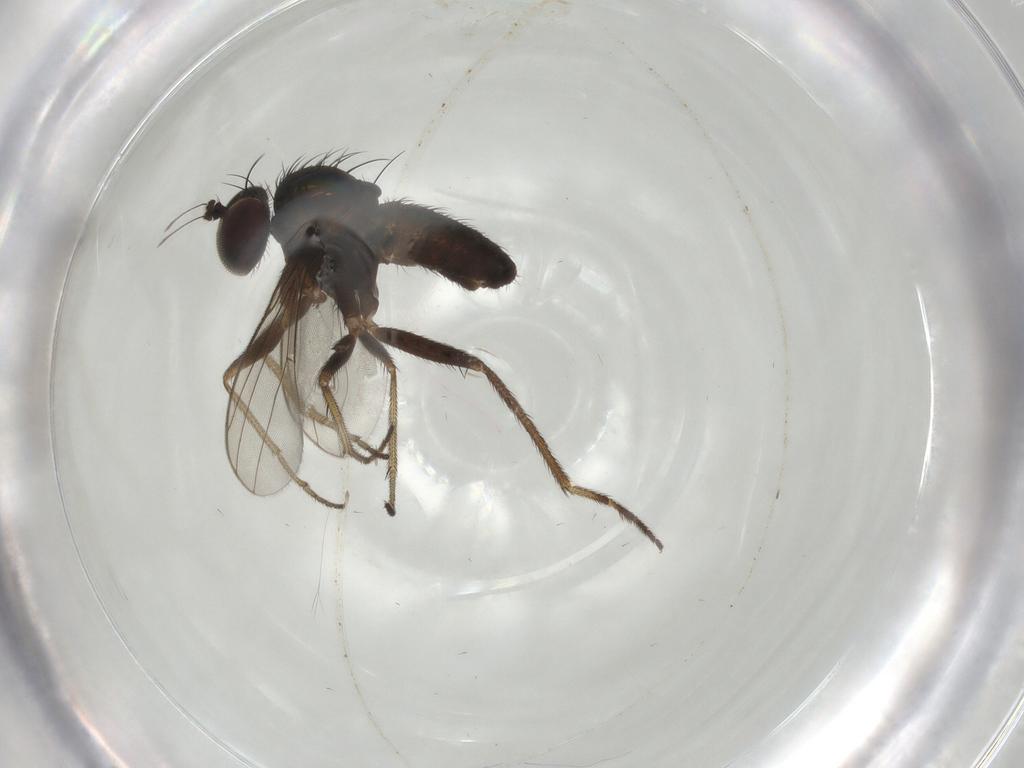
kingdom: Animalia
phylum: Arthropoda
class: Insecta
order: Diptera
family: Dolichopodidae
